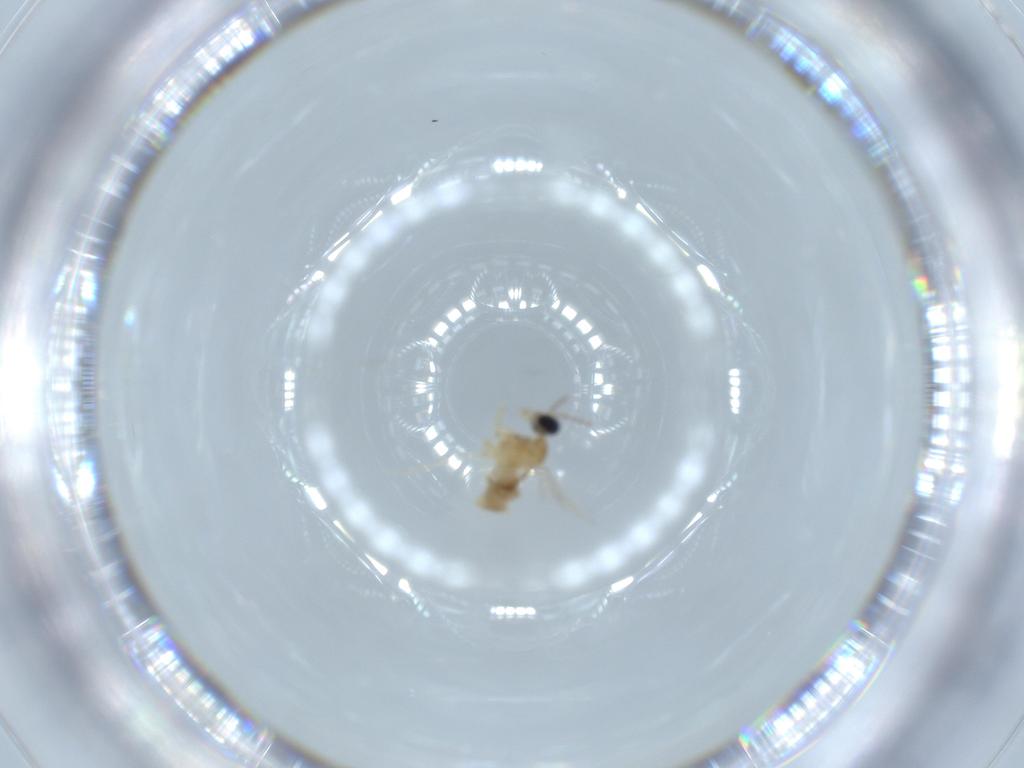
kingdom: Animalia
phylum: Arthropoda
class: Insecta
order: Diptera
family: Cecidomyiidae
